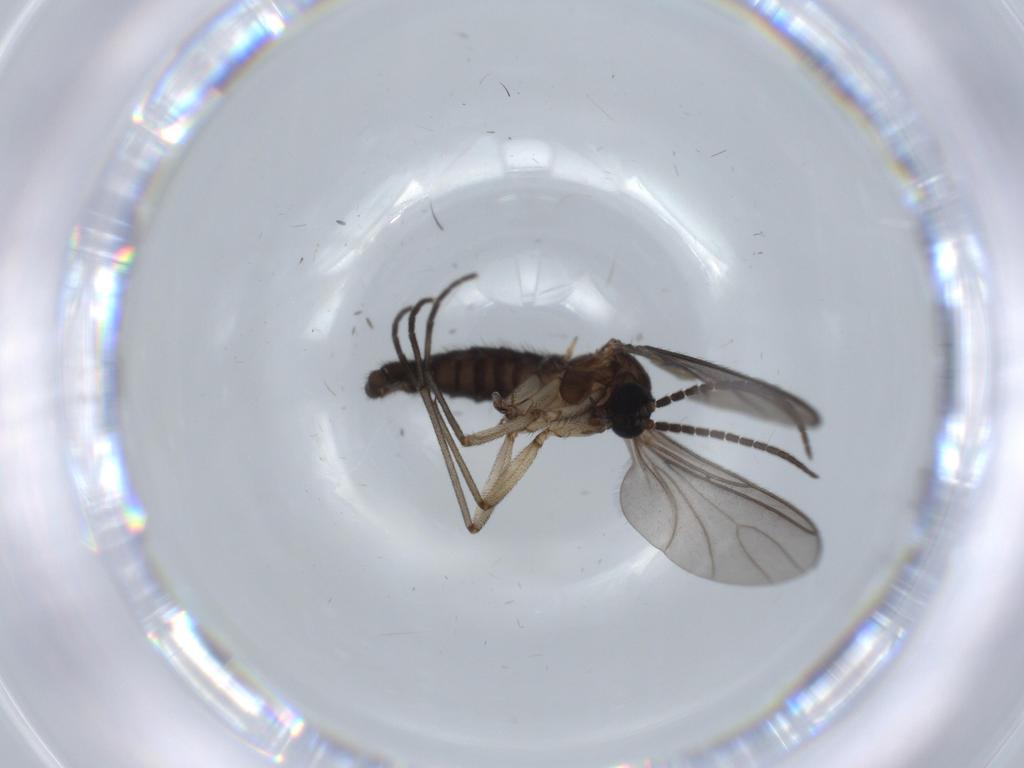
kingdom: Animalia
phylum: Arthropoda
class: Insecta
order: Diptera
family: Sciaridae
